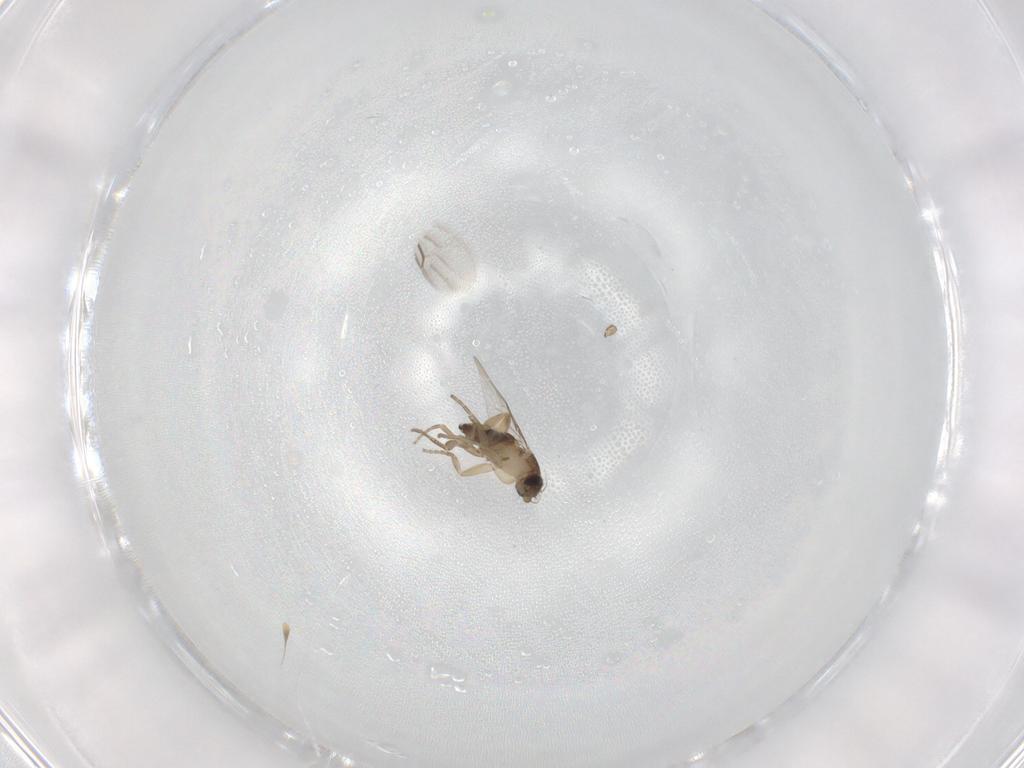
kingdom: Animalia
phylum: Arthropoda
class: Insecta
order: Diptera
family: Phoridae
